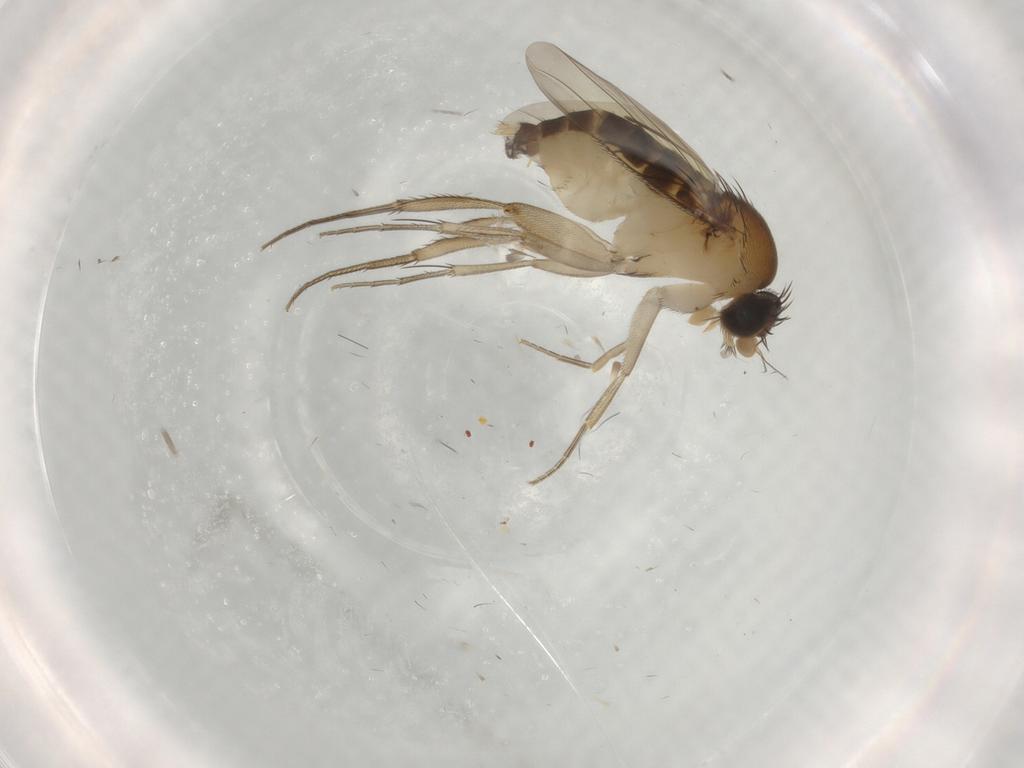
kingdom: Animalia
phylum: Arthropoda
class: Insecta
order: Diptera
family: Phoridae
